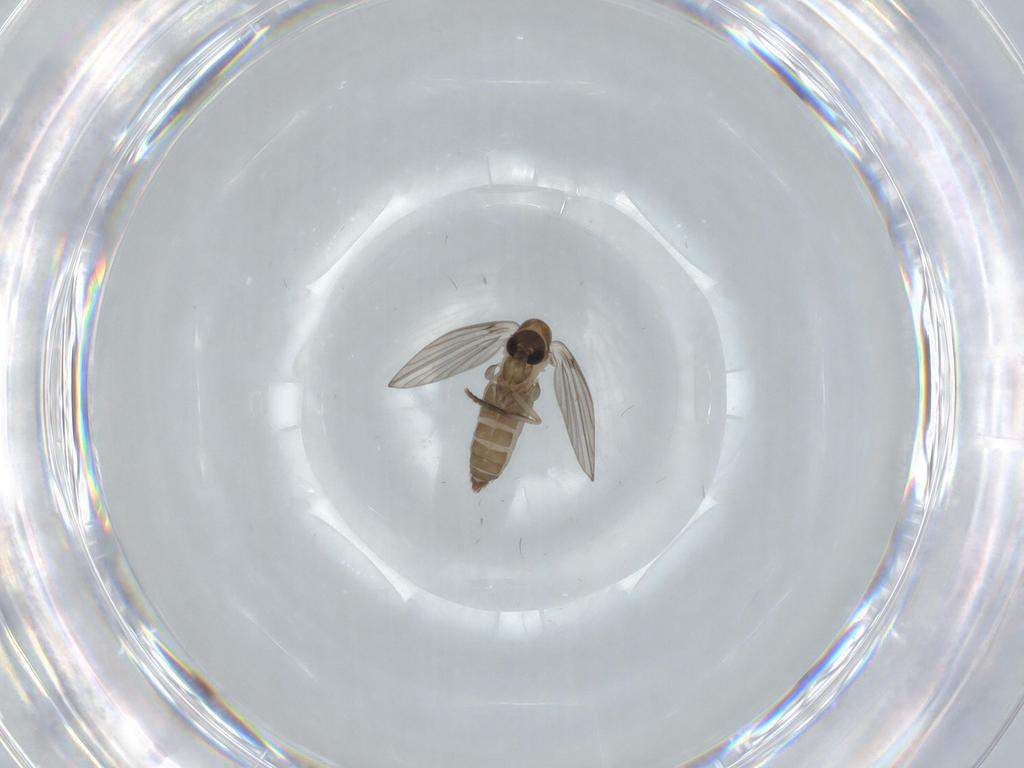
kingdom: Animalia
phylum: Arthropoda
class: Insecta
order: Diptera
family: Psychodidae
